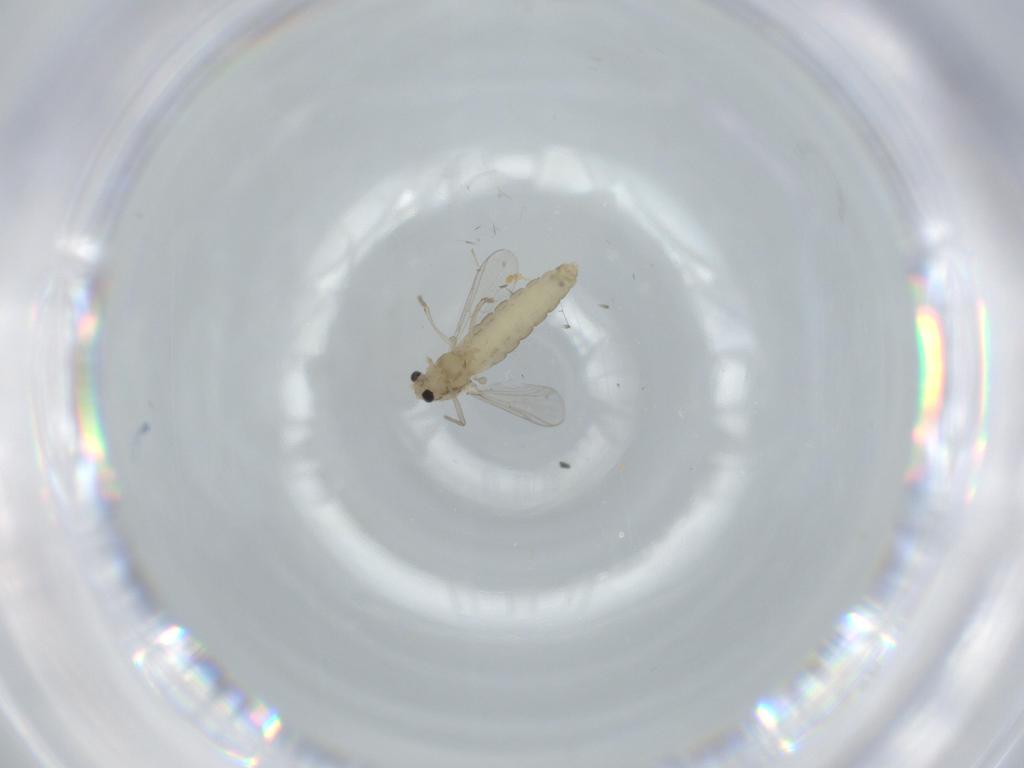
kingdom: Animalia
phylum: Arthropoda
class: Insecta
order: Diptera
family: Chironomidae
